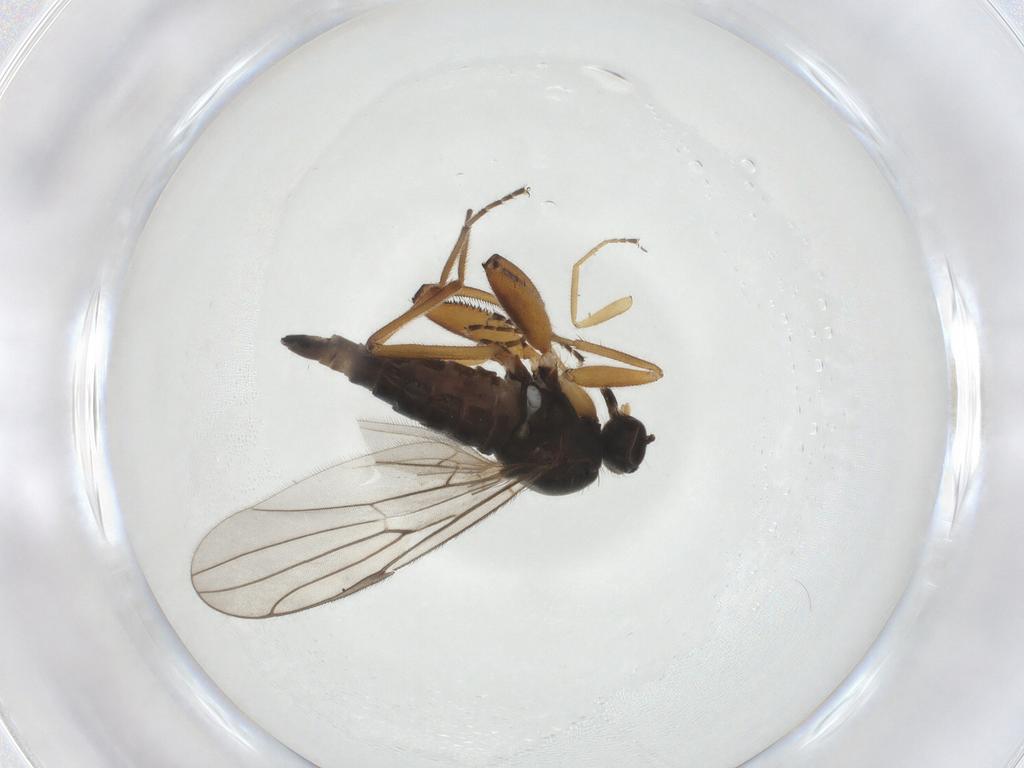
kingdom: Animalia
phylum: Arthropoda
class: Insecta
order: Diptera
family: Hybotidae
